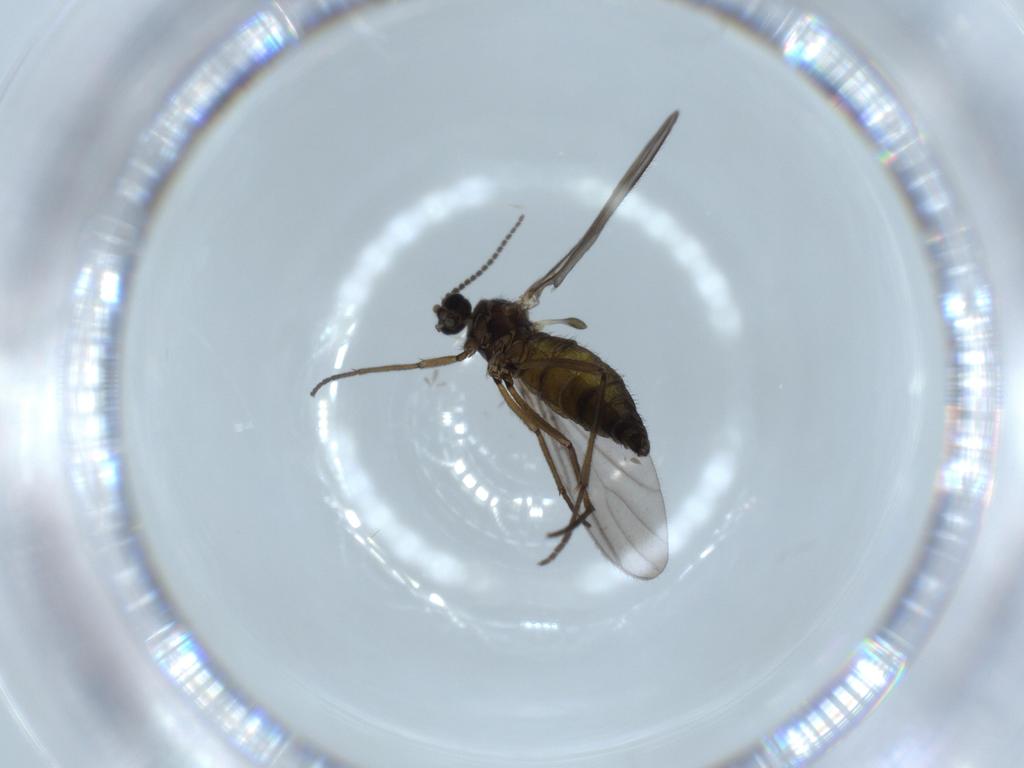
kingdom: Animalia
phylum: Arthropoda
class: Insecta
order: Diptera
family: Sciaridae
